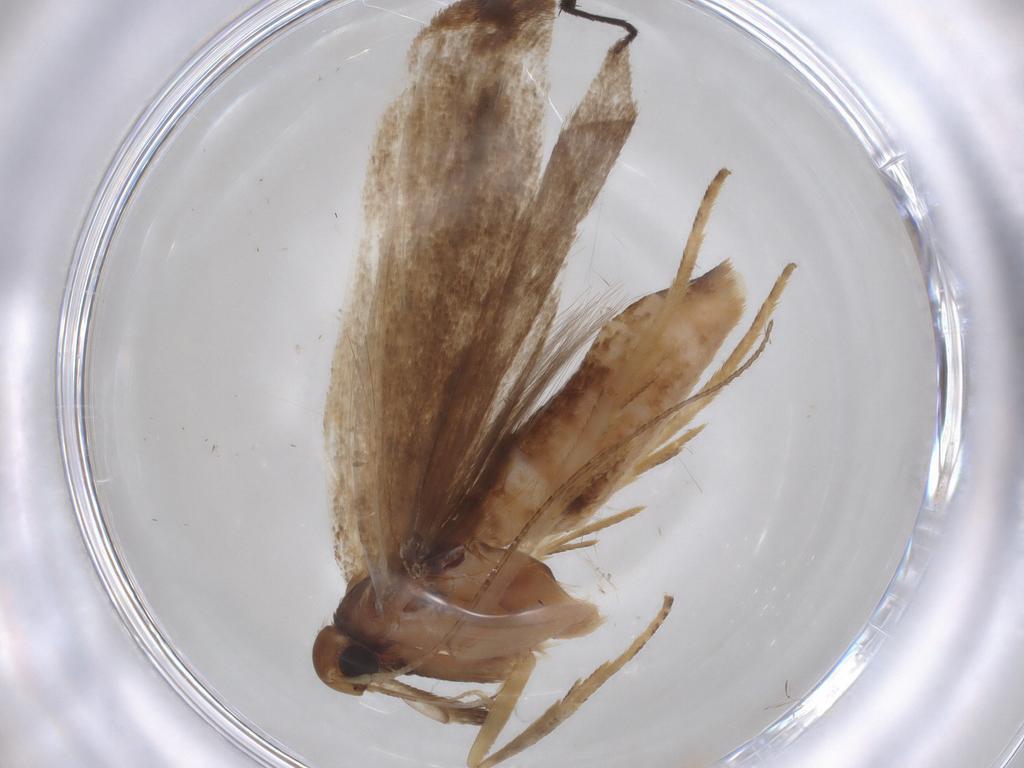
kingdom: Animalia
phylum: Arthropoda
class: Insecta
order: Lepidoptera
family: Gelechiidae
